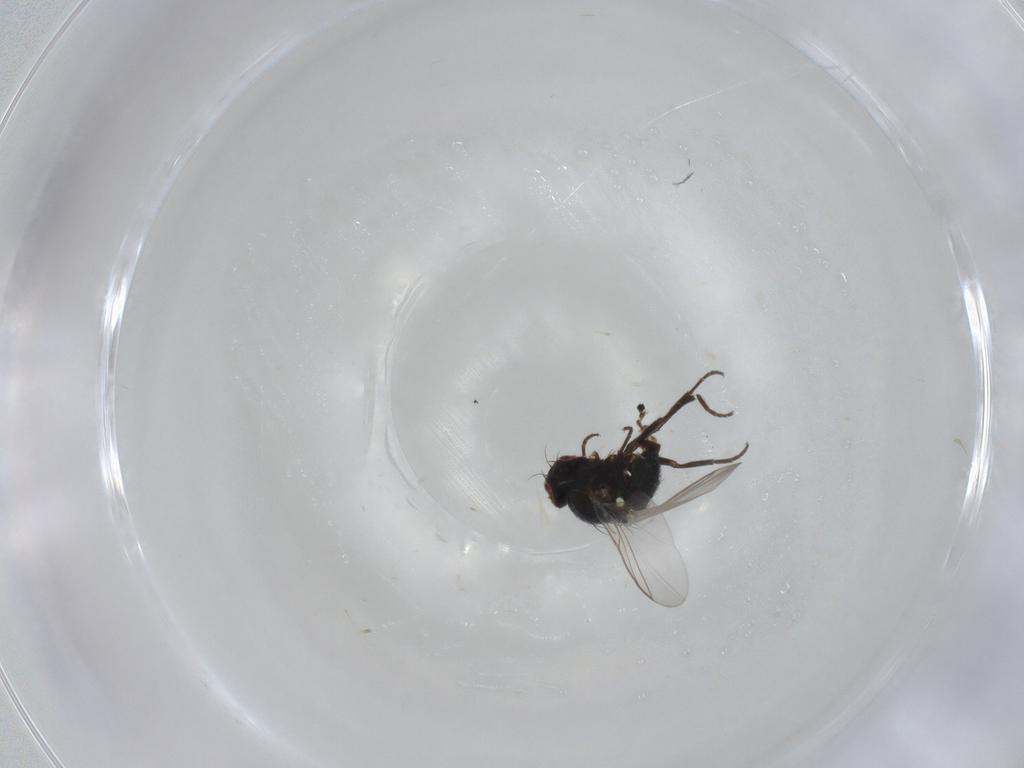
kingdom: Animalia
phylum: Arthropoda
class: Insecta
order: Diptera
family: Agromyzidae
